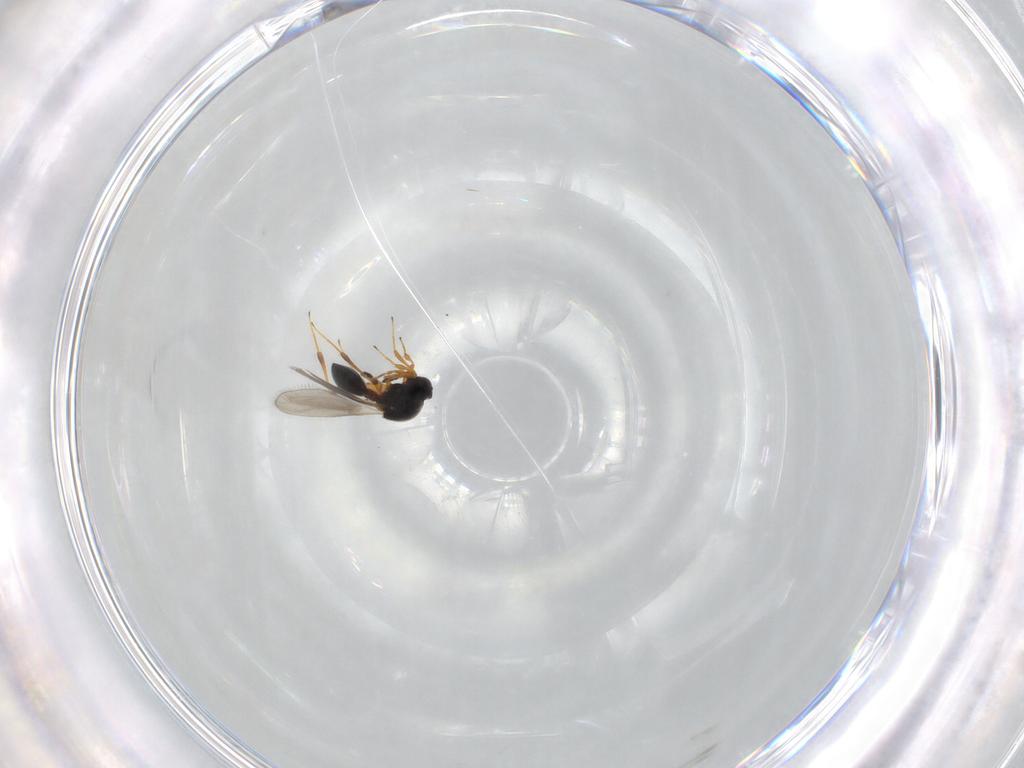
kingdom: Animalia
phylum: Arthropoda
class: Insecta
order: Hymenoptera
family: Platygastridae
